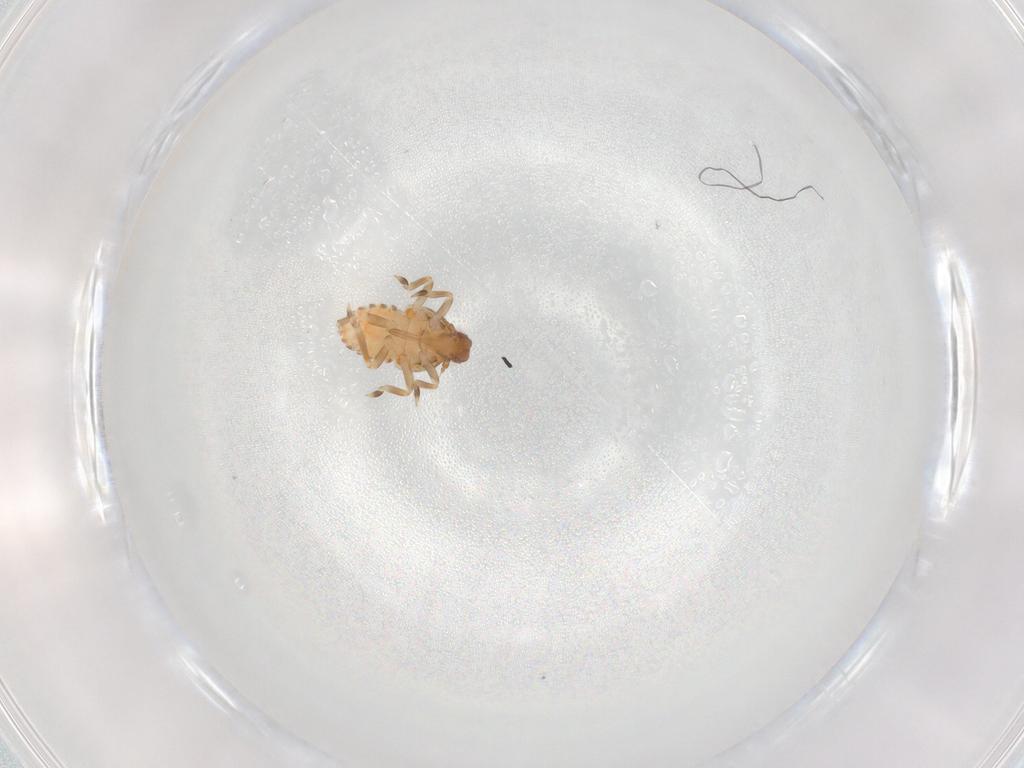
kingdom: Animalia
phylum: Arthropoda
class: Insecta
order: Hemiptera
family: Flatidae
